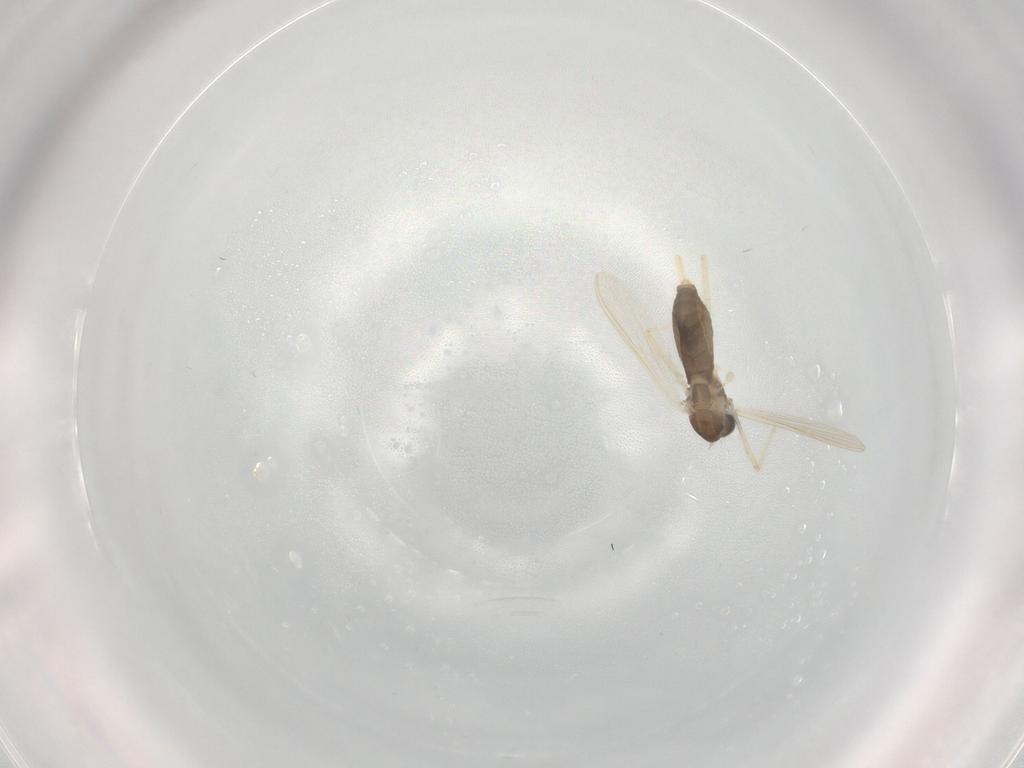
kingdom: Animalia
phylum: Arthropoda
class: Insecta
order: Diptera
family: Chironomidae
